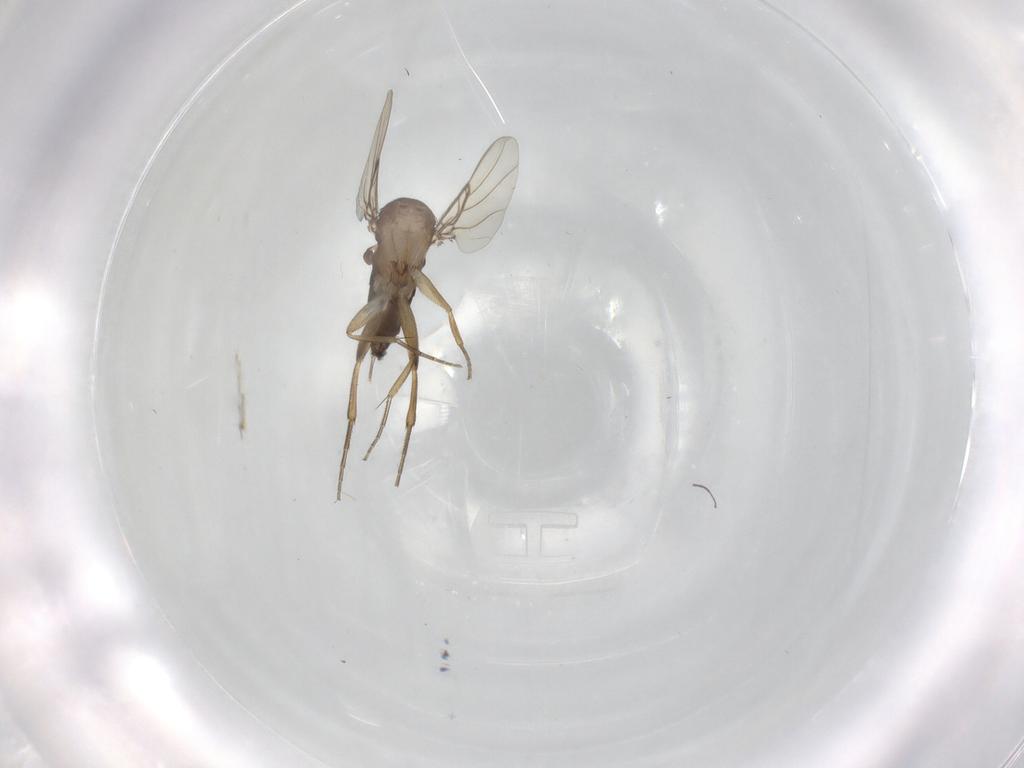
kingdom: Animalia
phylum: Arthropoda
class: Insecta
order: Diptera
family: Phoridae
